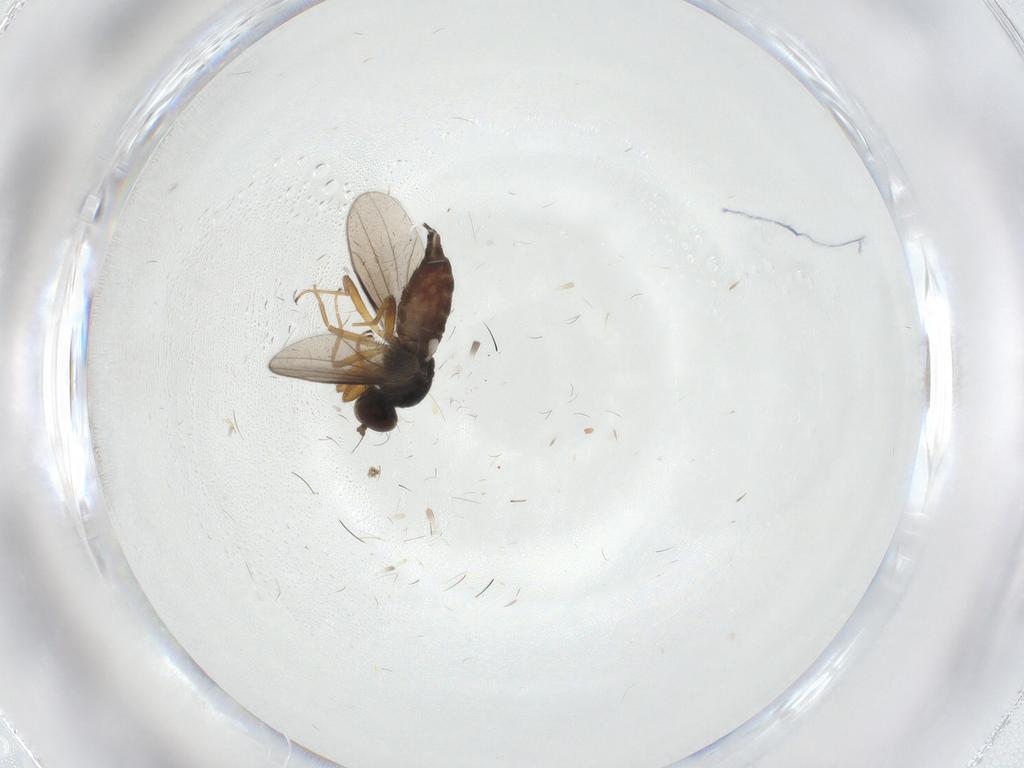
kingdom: Animalia
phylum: Arthropoda
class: Insecta
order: Diptera
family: Hybotidae
